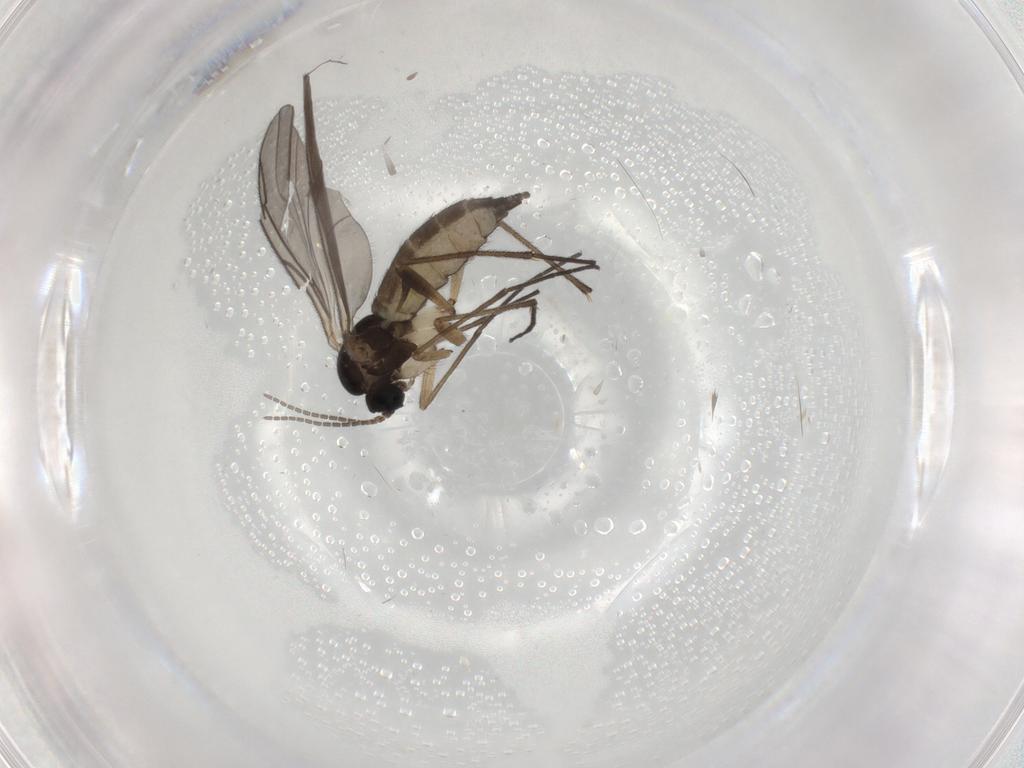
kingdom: Animalia
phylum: Arthropoda
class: Insecta
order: Diptera
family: Sciaridae
